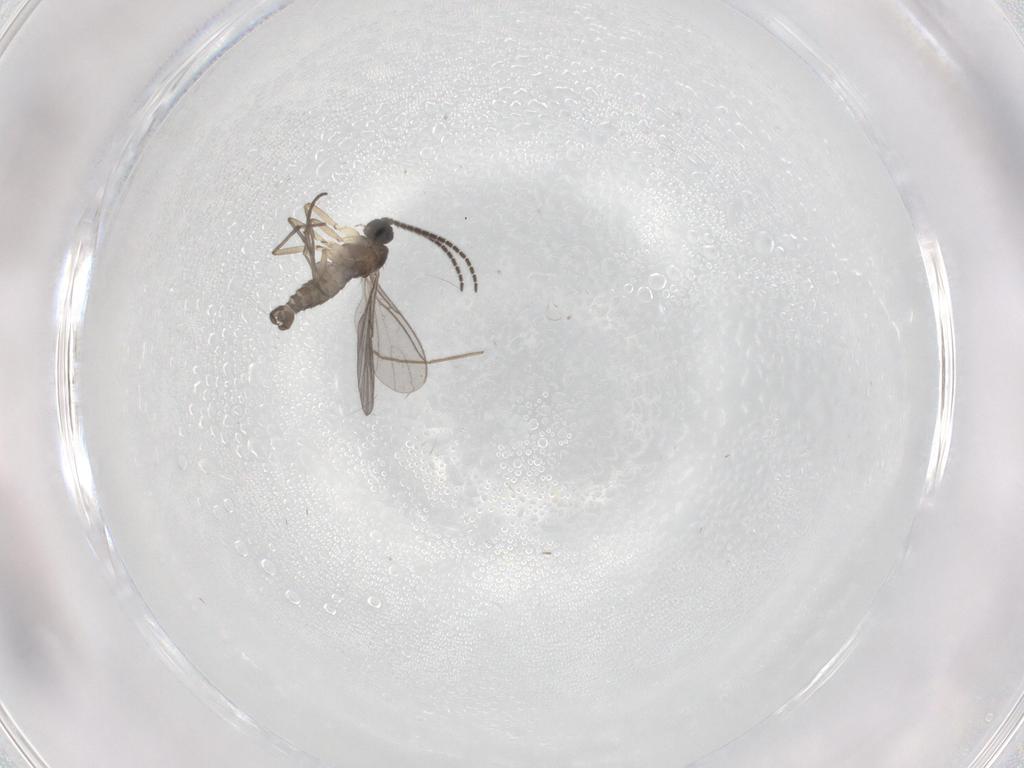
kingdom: Animalia
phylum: Arthropoda
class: Insecta
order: Diptera
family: Sciaridae
